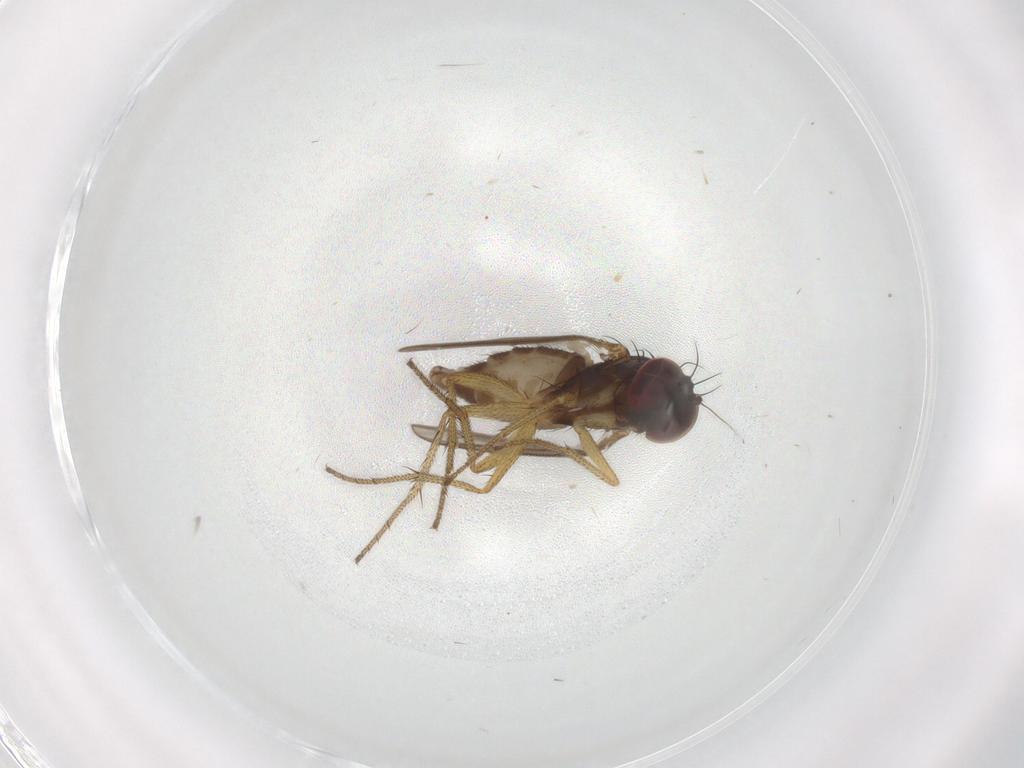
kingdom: Animalia
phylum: Arthropoda
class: Insecta
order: Diptera
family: Dolichopodidae
